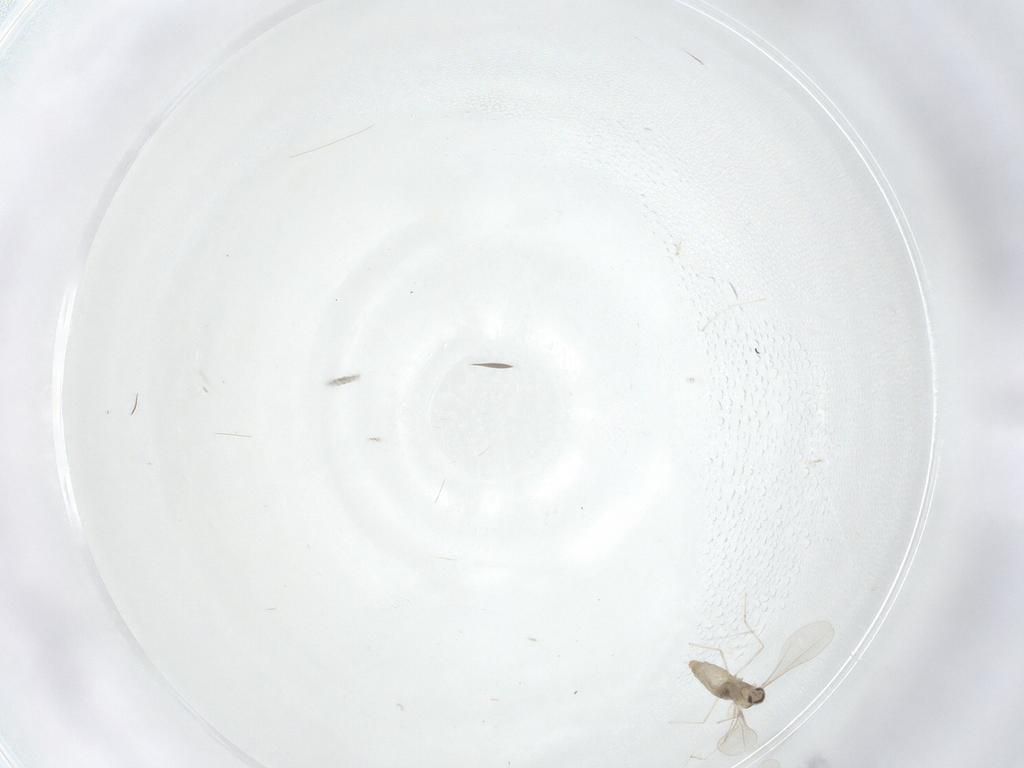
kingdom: Animalia
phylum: Arthropoda
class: Insecta
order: Diptera
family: Cecidomyiidae
